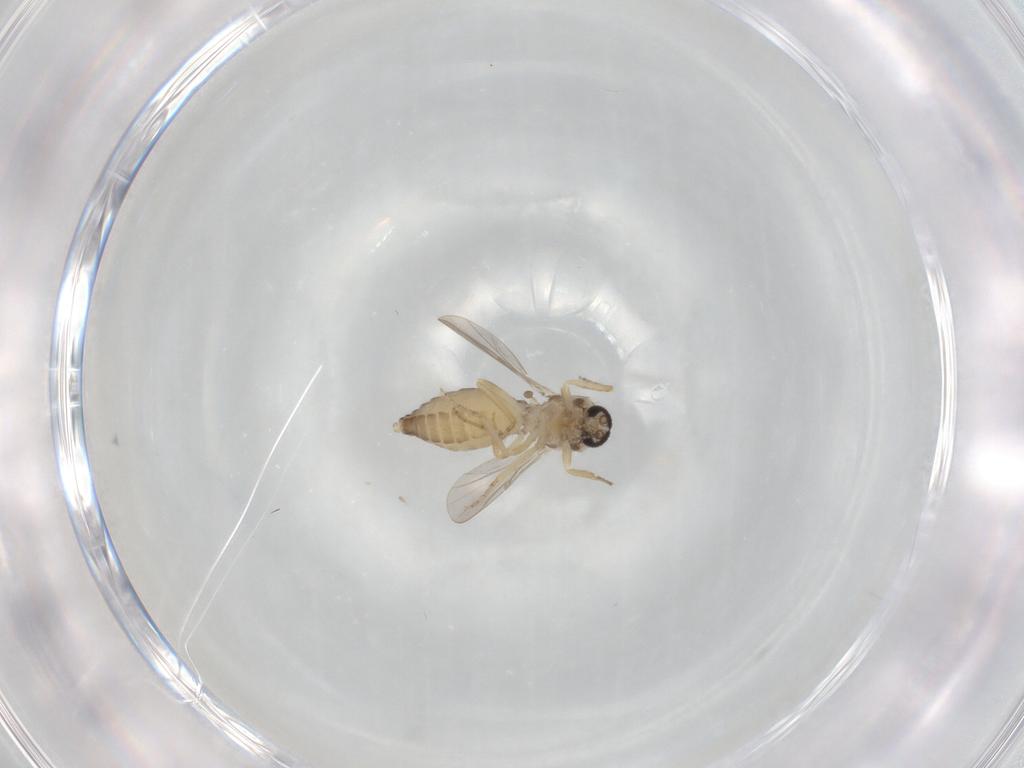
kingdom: Animalia
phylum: Arthropoda
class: Insecta
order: Diptera
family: Ceratopogonidae
